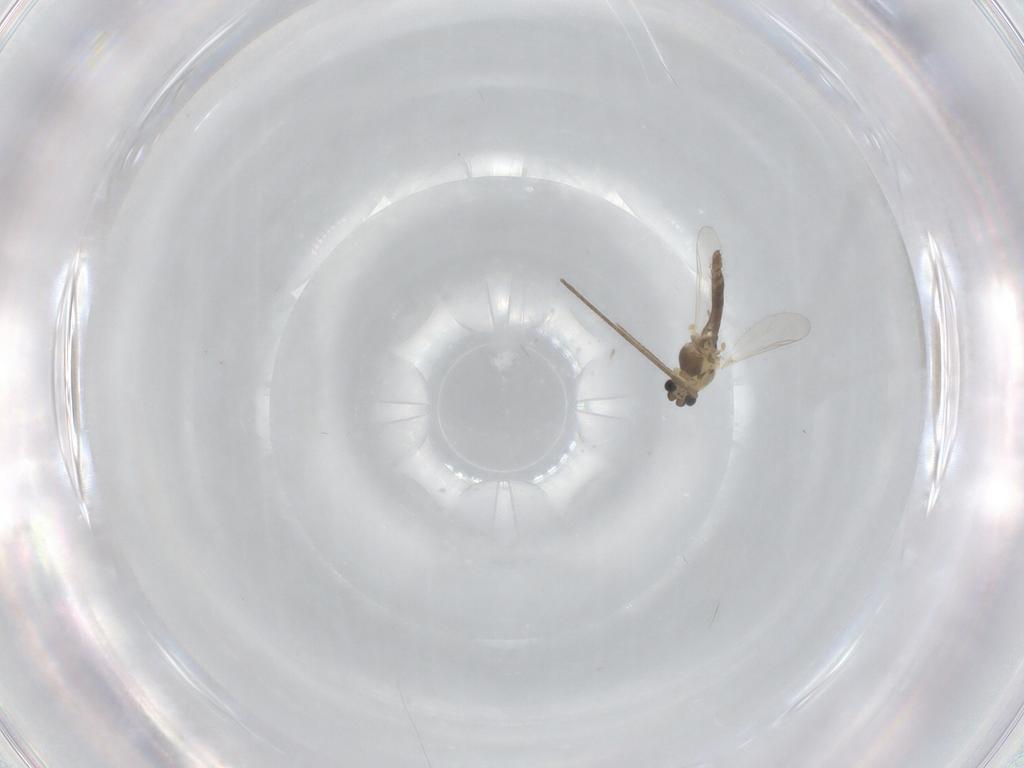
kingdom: Animalia
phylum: Arthropoda
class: Insecta
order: Diptera
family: Chironomidae
